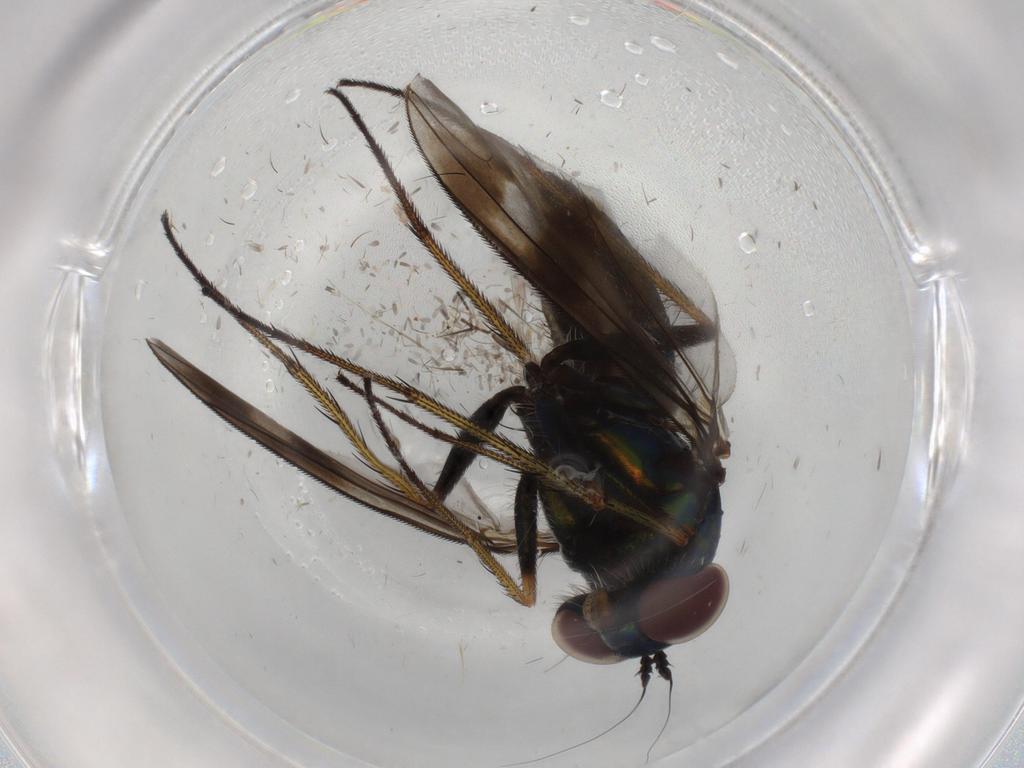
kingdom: Animalia
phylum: Arthropoda
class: Insecta
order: Diptera
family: Dolichopodidae
